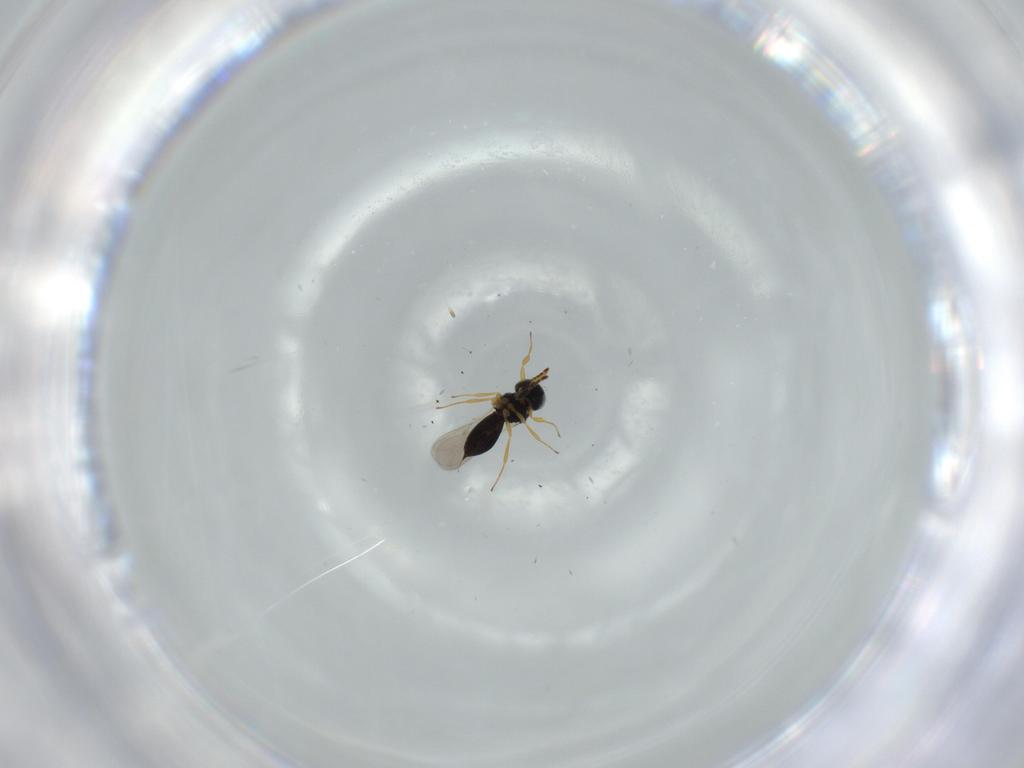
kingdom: Animalia
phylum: Arthropoda
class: Insecta
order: Hymenoptera
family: Scelionidae
